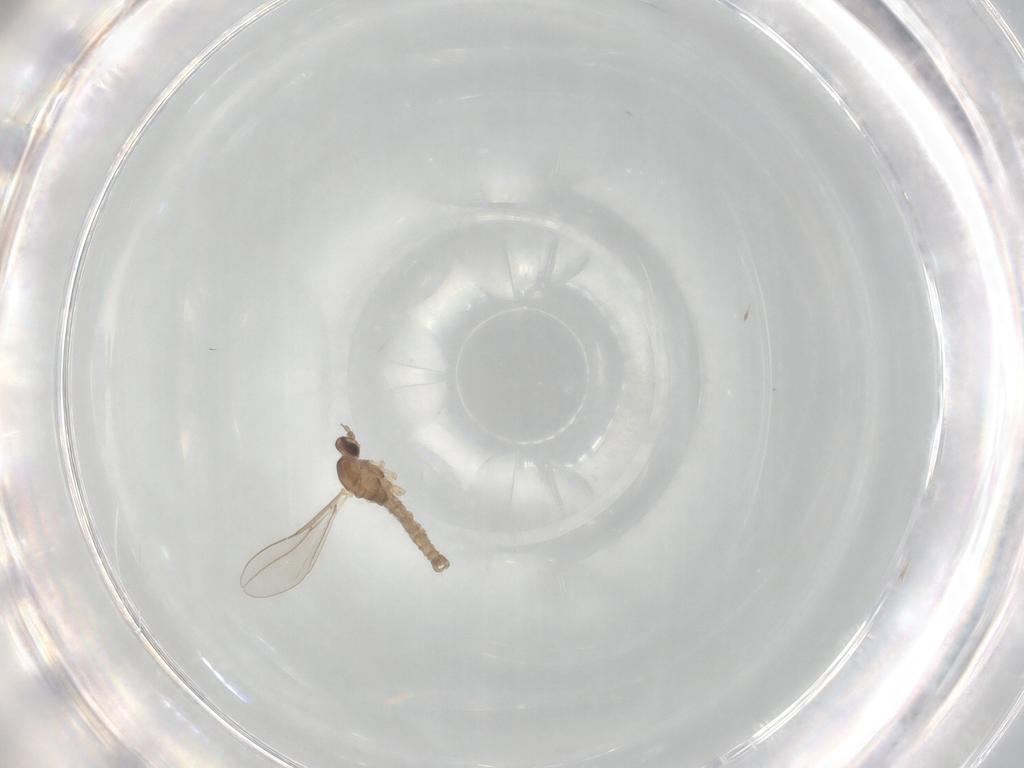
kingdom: Animalia
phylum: Arthropoda
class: Insecta
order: Diptera
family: Cecidomyiidae
